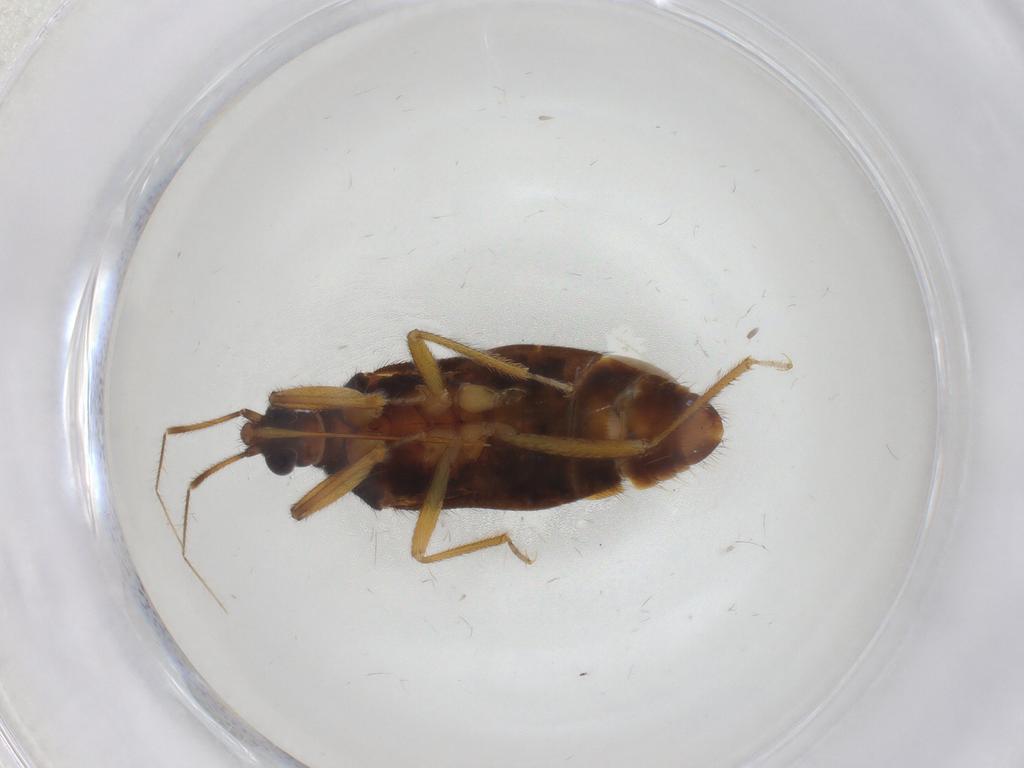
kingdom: Animalia
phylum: Arthropoda
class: Insecta
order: Hemiptera
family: Anthocoridae
